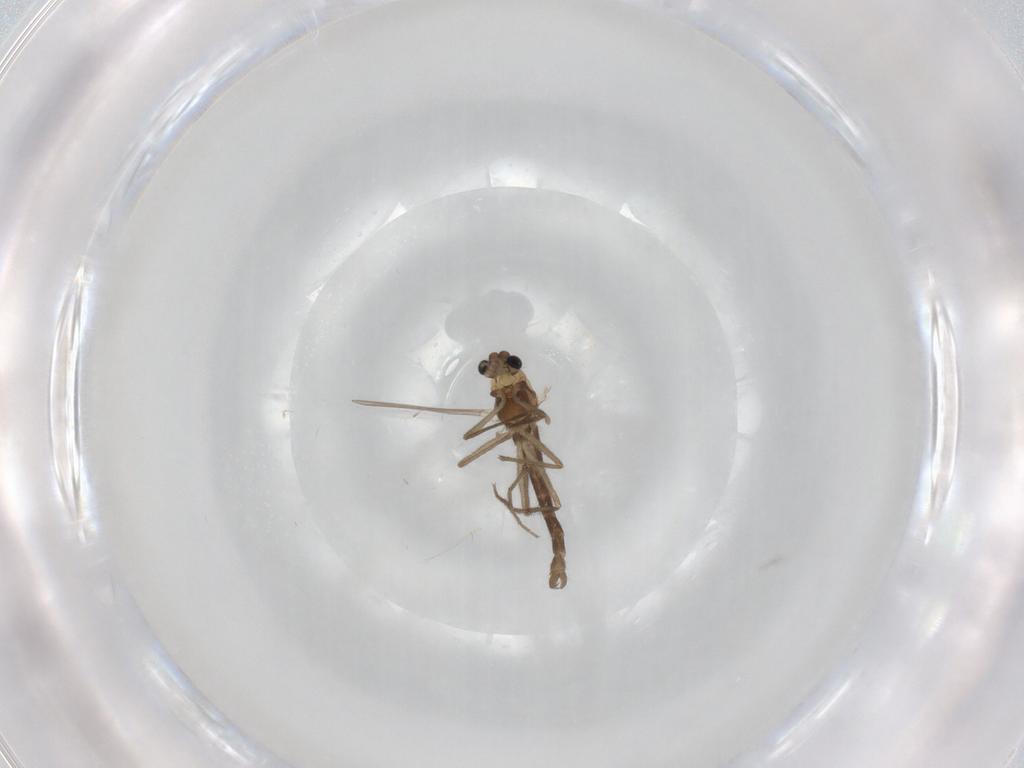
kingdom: Animalia
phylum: Arthropoda
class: Insecta
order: Diptera
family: Chironomidae
